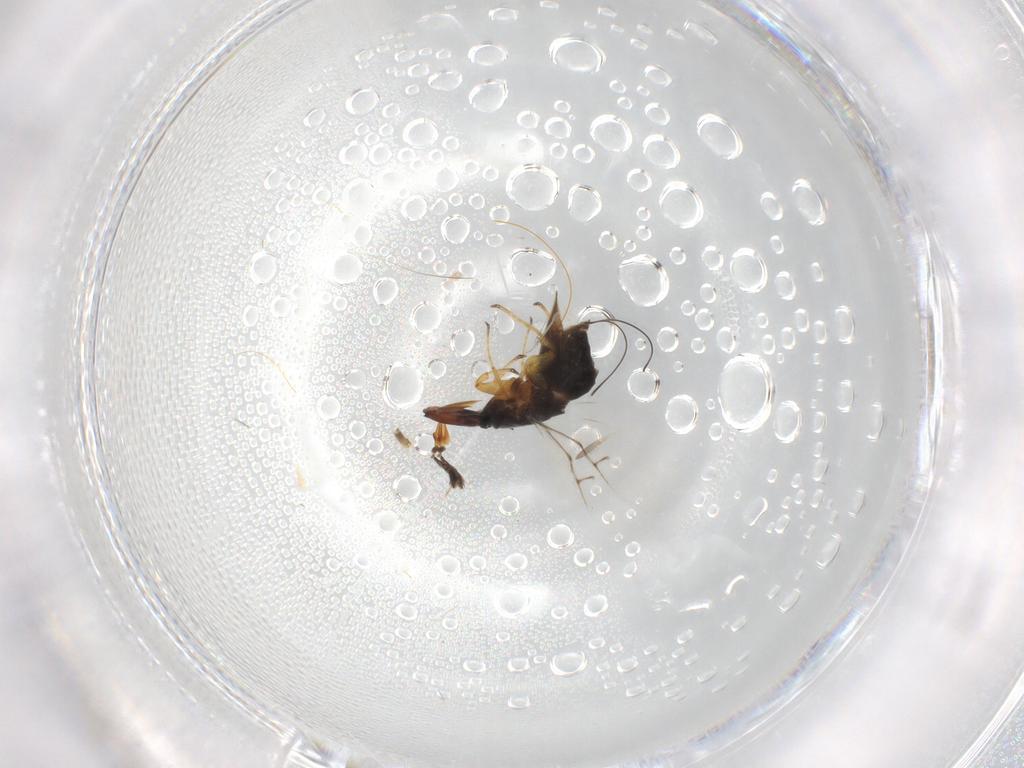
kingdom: Animalia
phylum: Arthropoda
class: Insecta
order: Hymenoptera
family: Agaonidae
